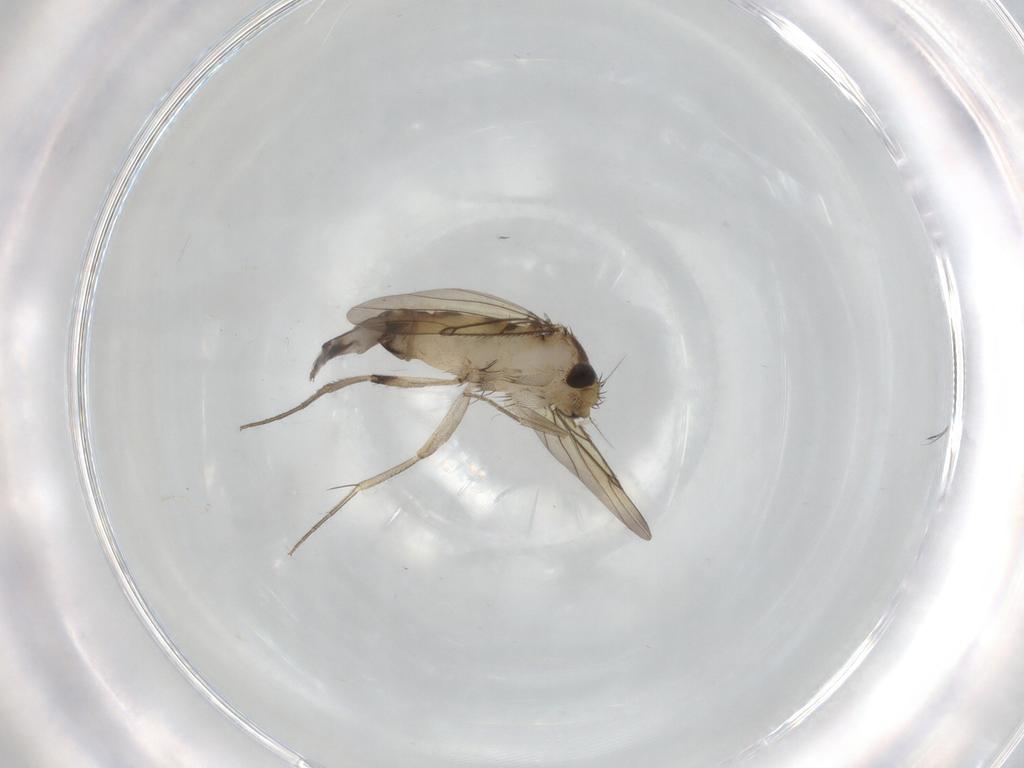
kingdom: Animalia
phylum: Arthropoda
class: Insecta
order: Diptera
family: Phoridae
